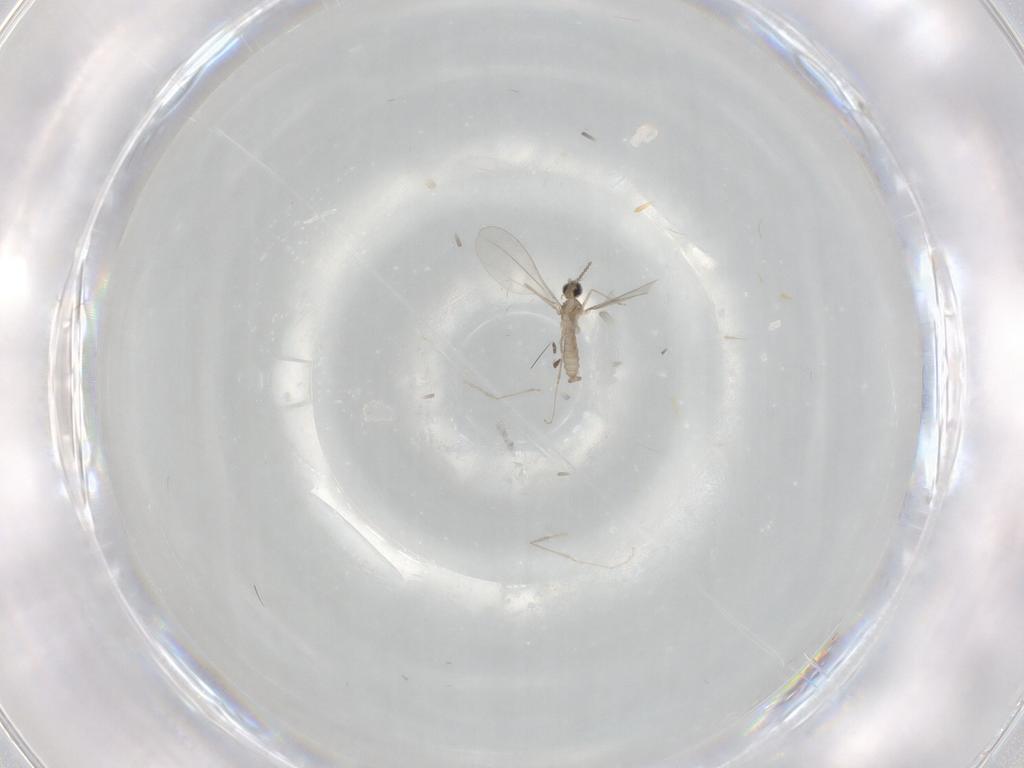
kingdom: Animalia
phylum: Arthropoda
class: Insecta
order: Diptera
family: Cecidomyiidae
